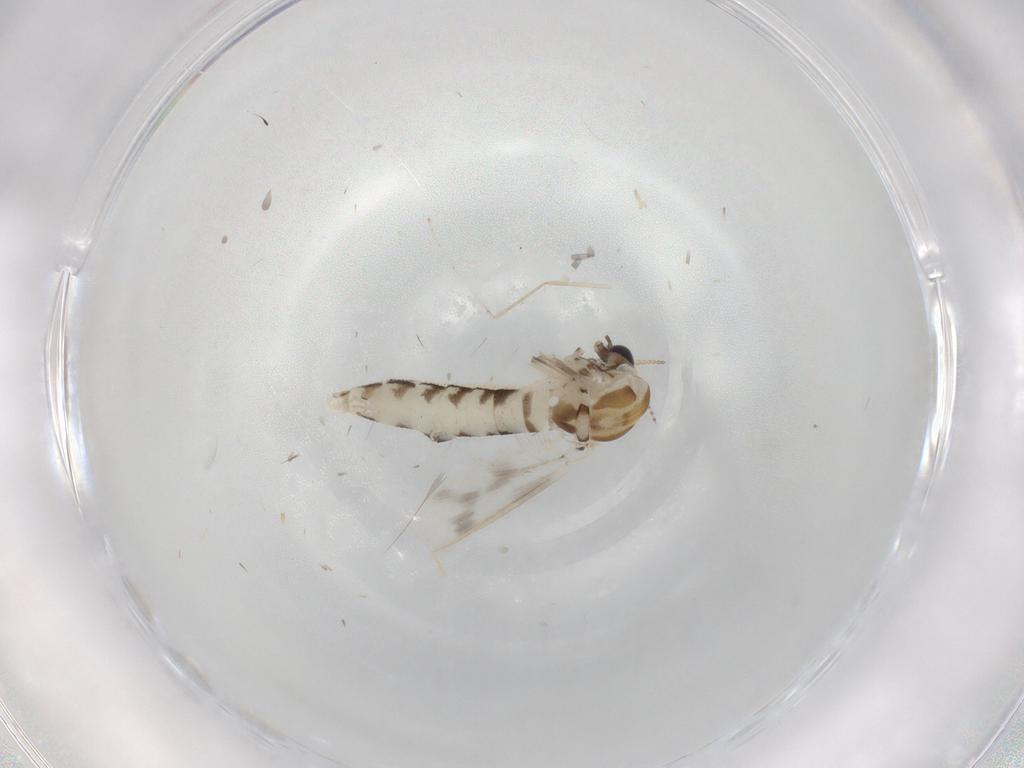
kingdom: Animalia
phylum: Arthropoda
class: Insecta
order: Diptera
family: Corethrellidae
